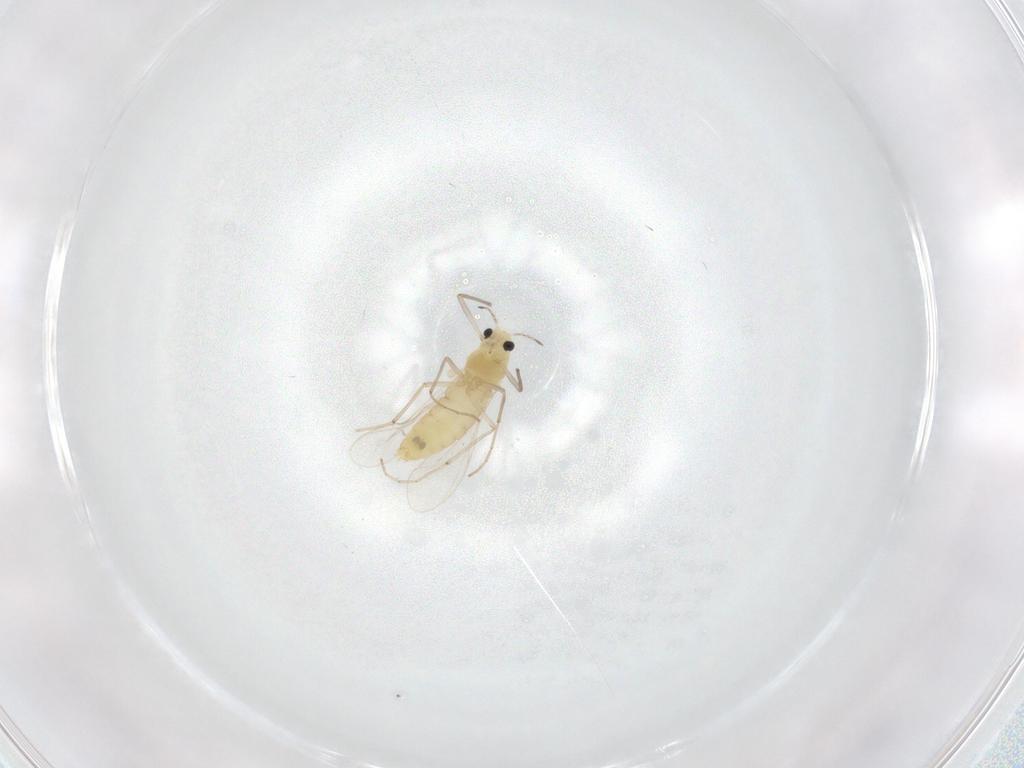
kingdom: Animalia
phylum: Arthropoda
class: Insecta
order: Diptera
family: Chironomidae
